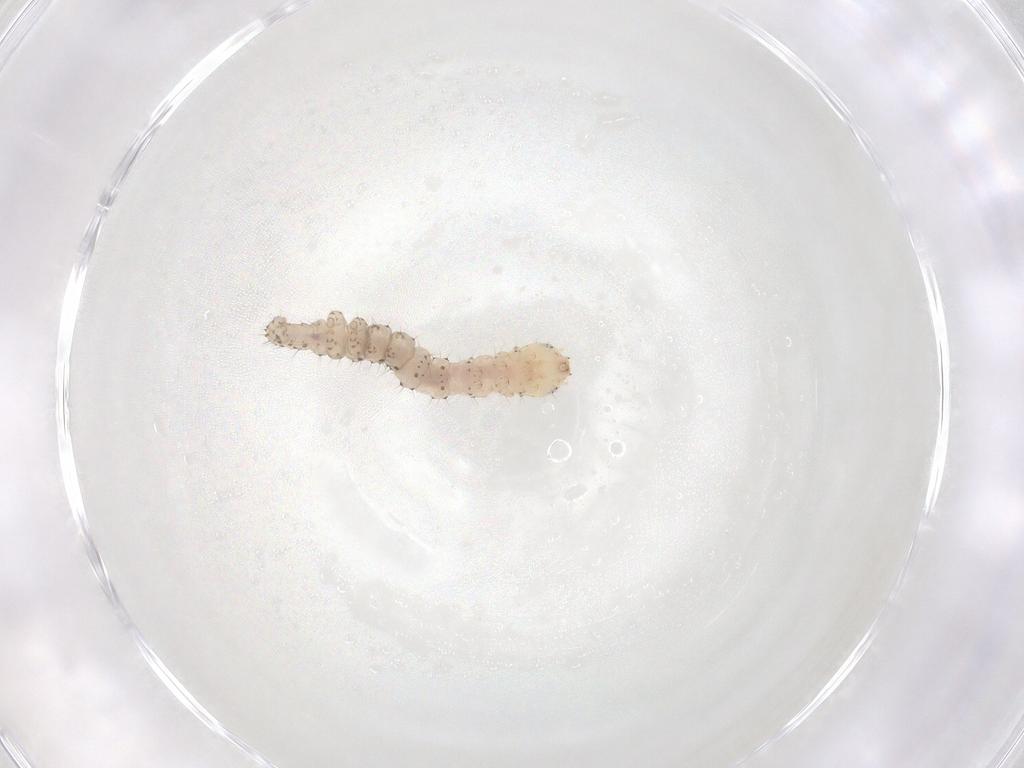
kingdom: Animalia
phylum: Arthropoda
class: Insecta
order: Lepidoptera
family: Noctuidae
